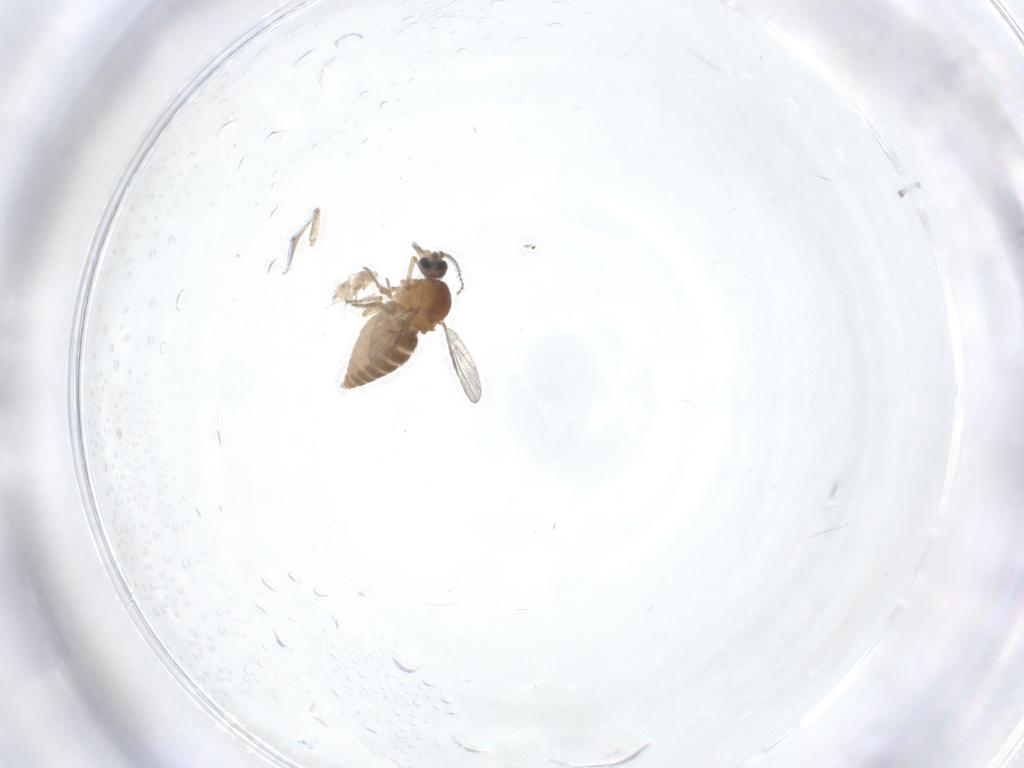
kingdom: Animalia
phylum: Arthropoda
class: Insecta
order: Diptera
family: Ceratopogonidae
